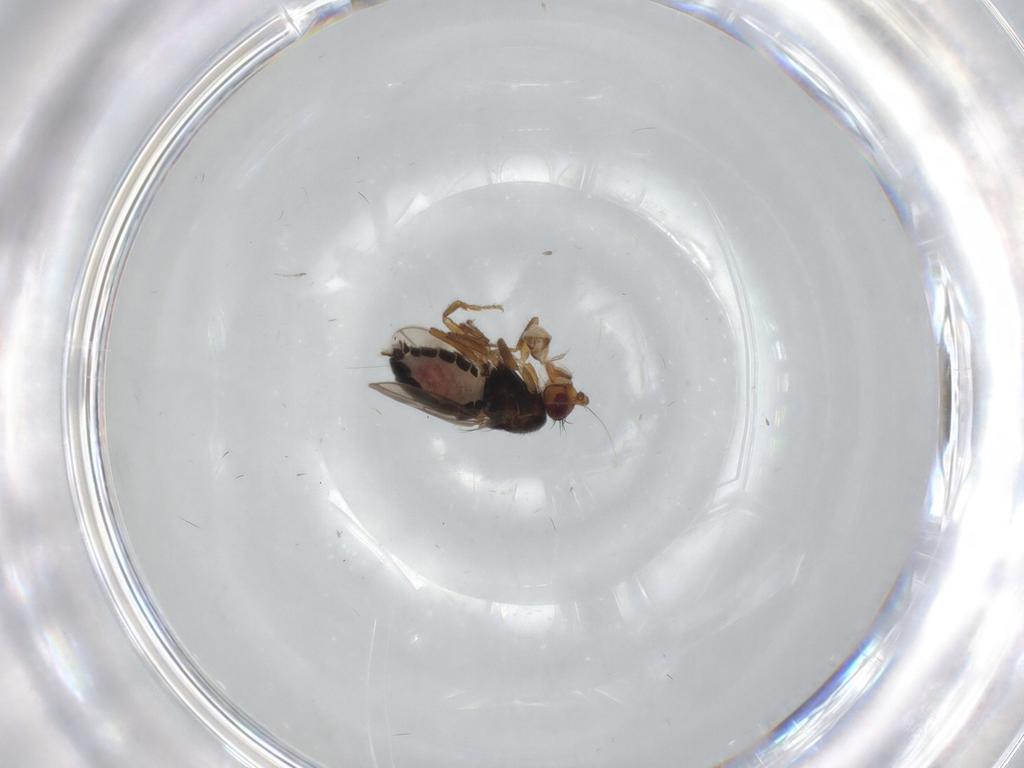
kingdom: Animalia
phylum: Arthropoda
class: Insecta
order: Diptera
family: Sphaeroceridae
